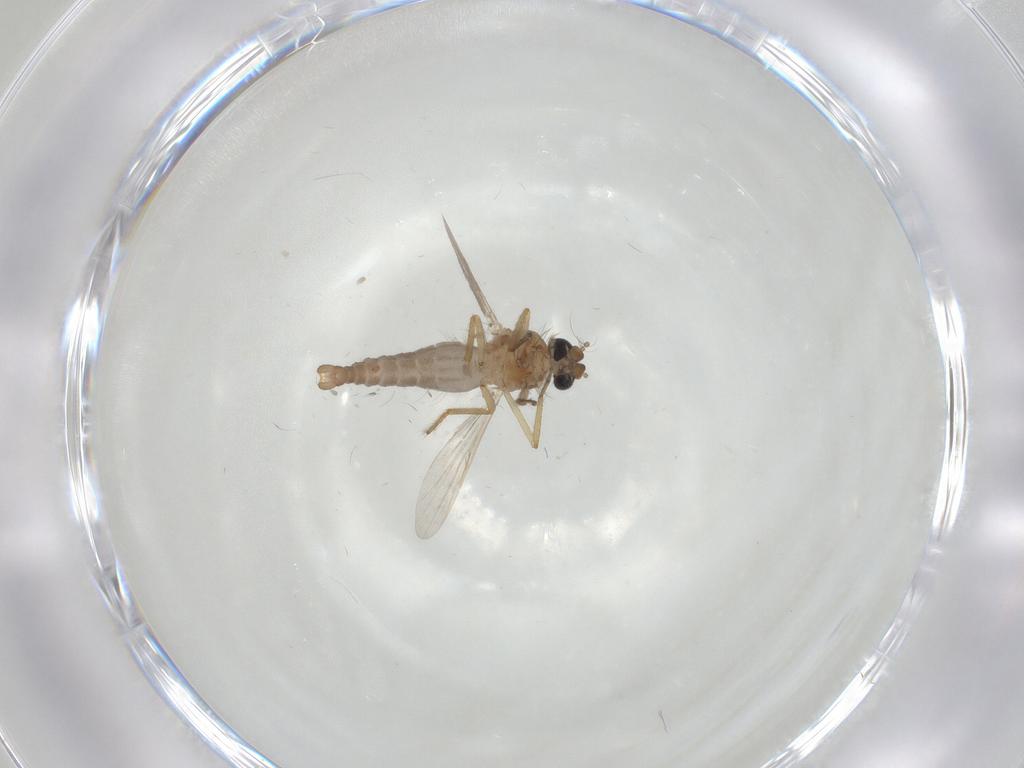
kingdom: Animalia
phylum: Arthropoda
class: Insecta
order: Diptera
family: Ceratopogonidae
